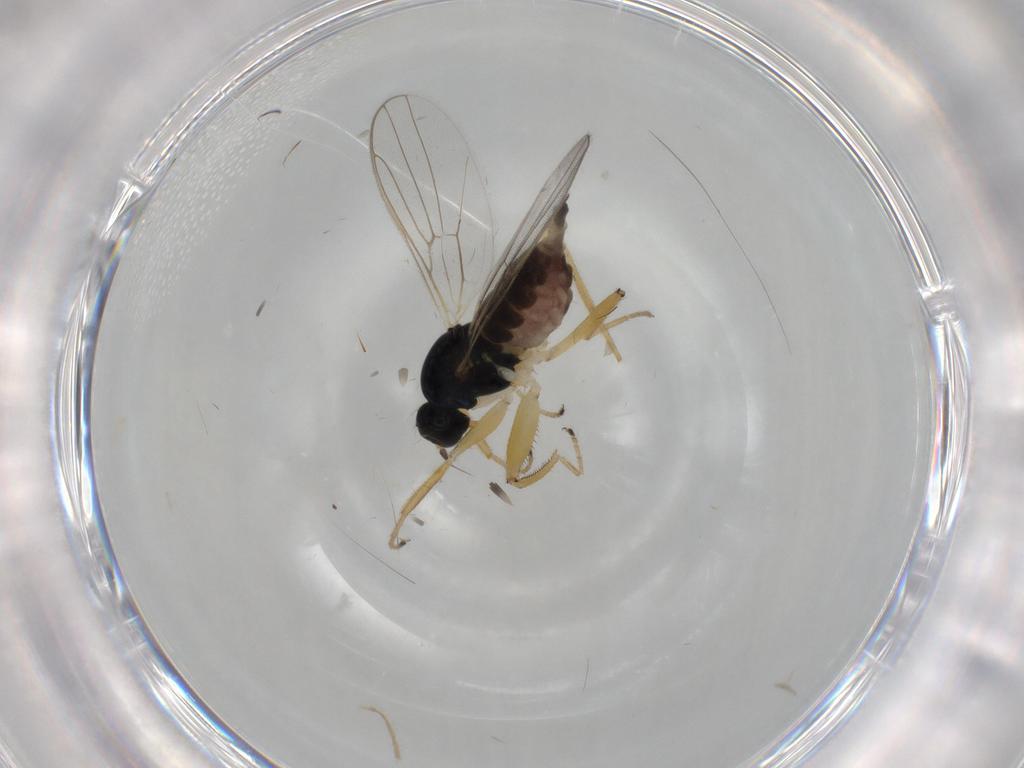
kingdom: Animalia
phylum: Arthropoda
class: Insecta
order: Diptera
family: Hybotidae
